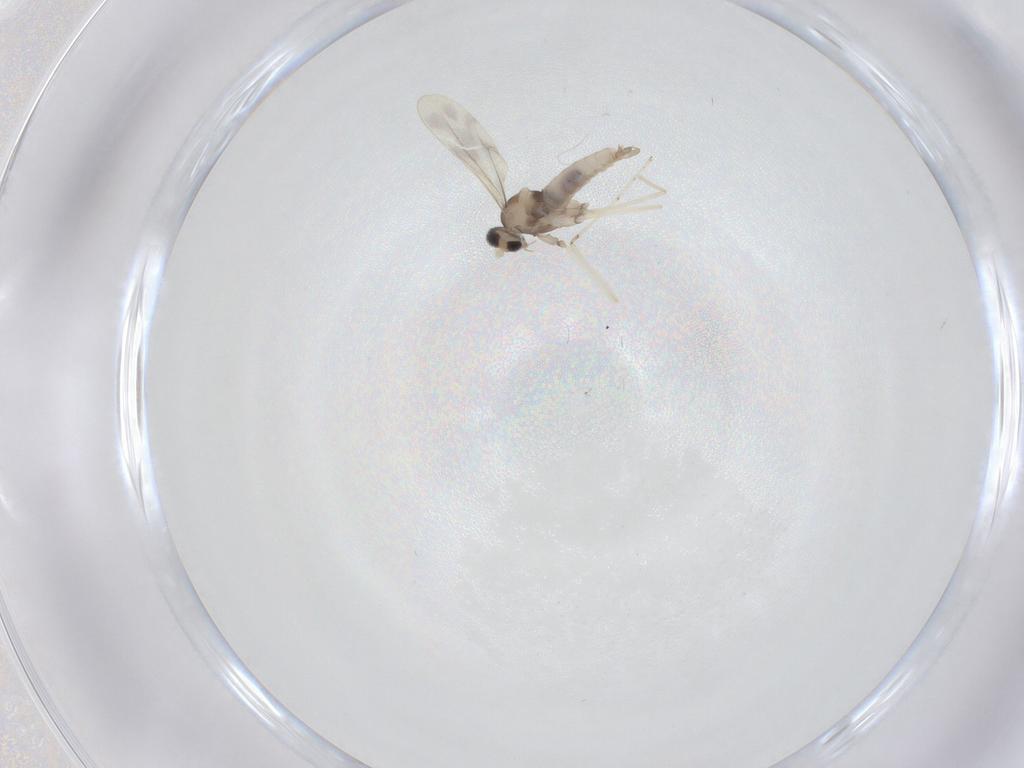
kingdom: Animalia
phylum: Arthropoda
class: Insecta
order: Diptera
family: Cecidomyiidae
